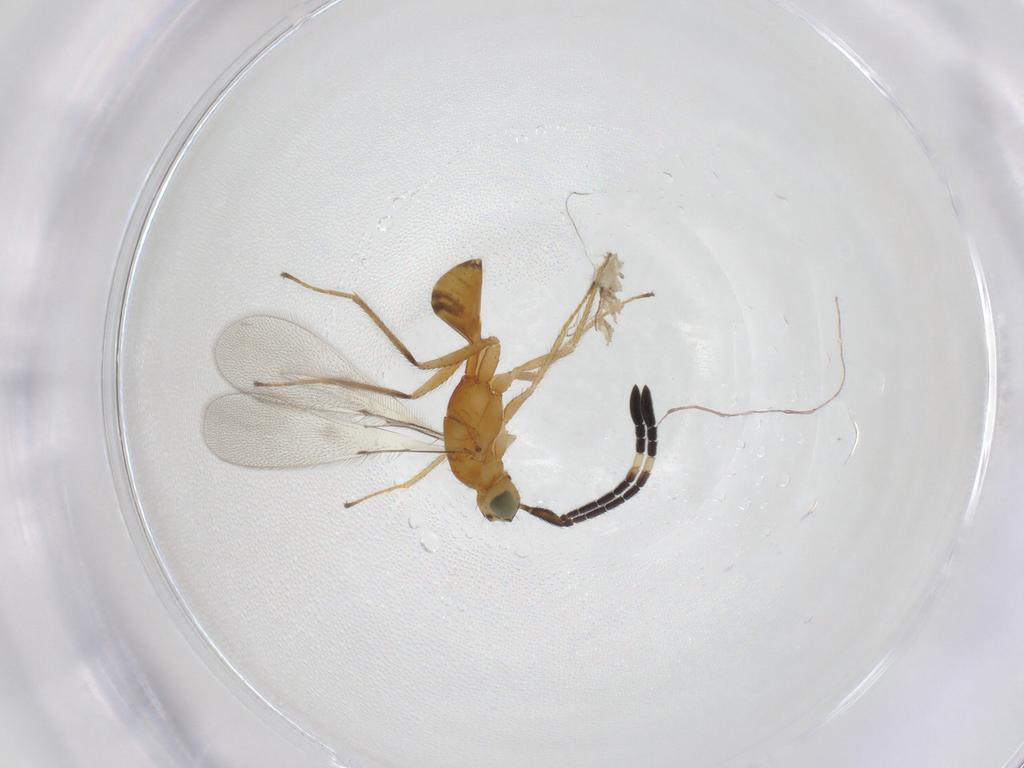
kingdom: Animalia
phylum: Arthropoda
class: Insecta
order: Hymenoptera
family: Mymaridae
